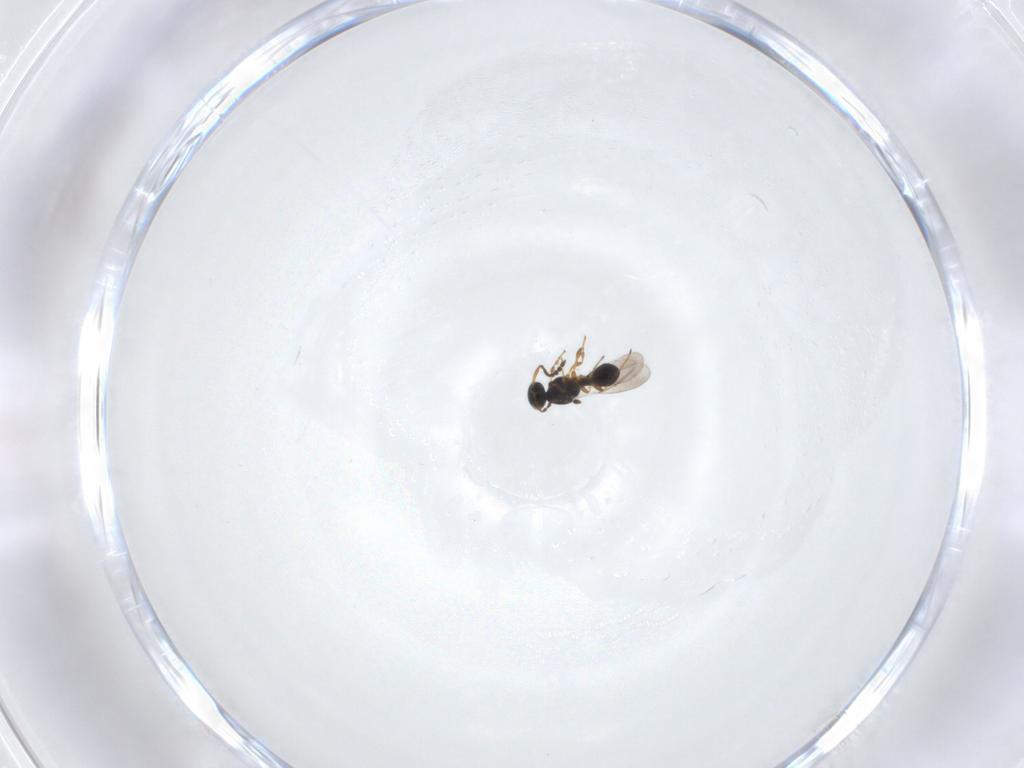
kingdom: Animalia
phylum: Arthropoda
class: Insecta
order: Hymenoptera
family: Platygastridae
